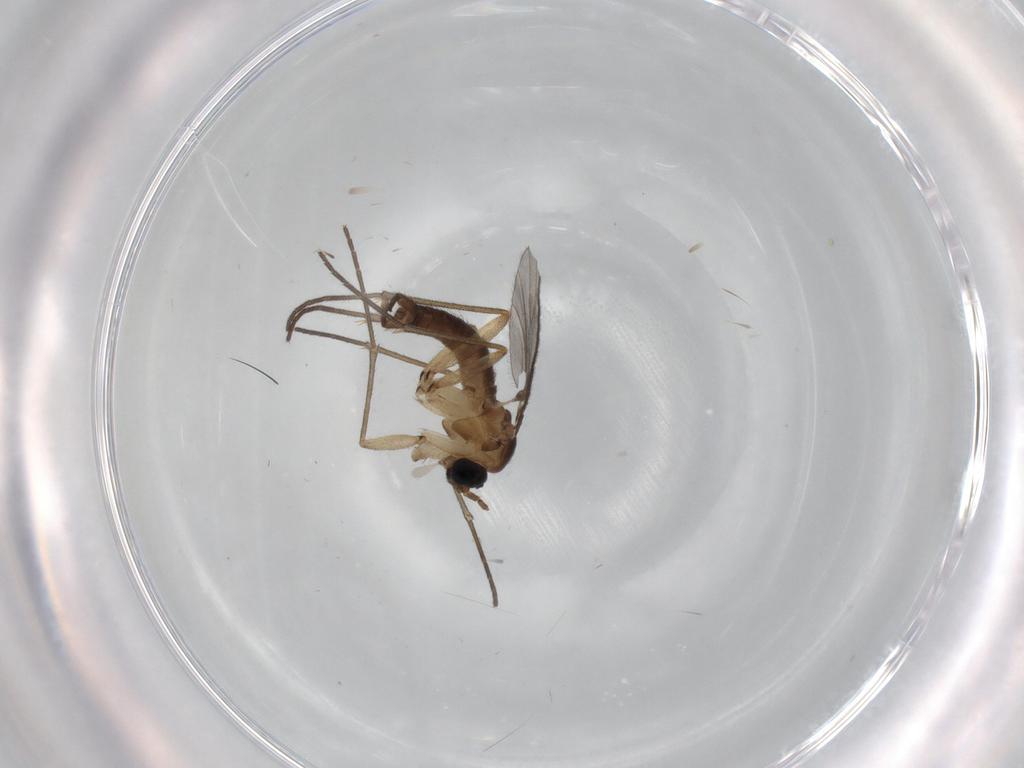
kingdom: Animalia
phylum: Arthropoda
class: Insecta
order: Diptera
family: Sciaridae
